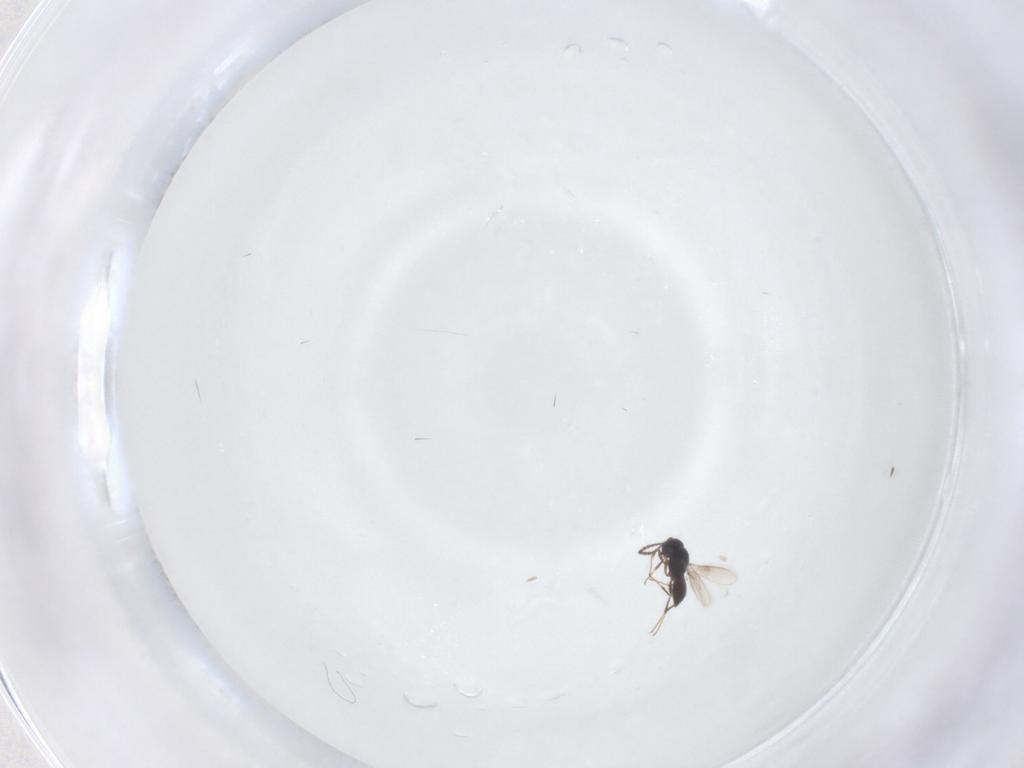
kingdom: Animalia
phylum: Arthropoda
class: Insecta
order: Hymenoptera
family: Scelionidae
